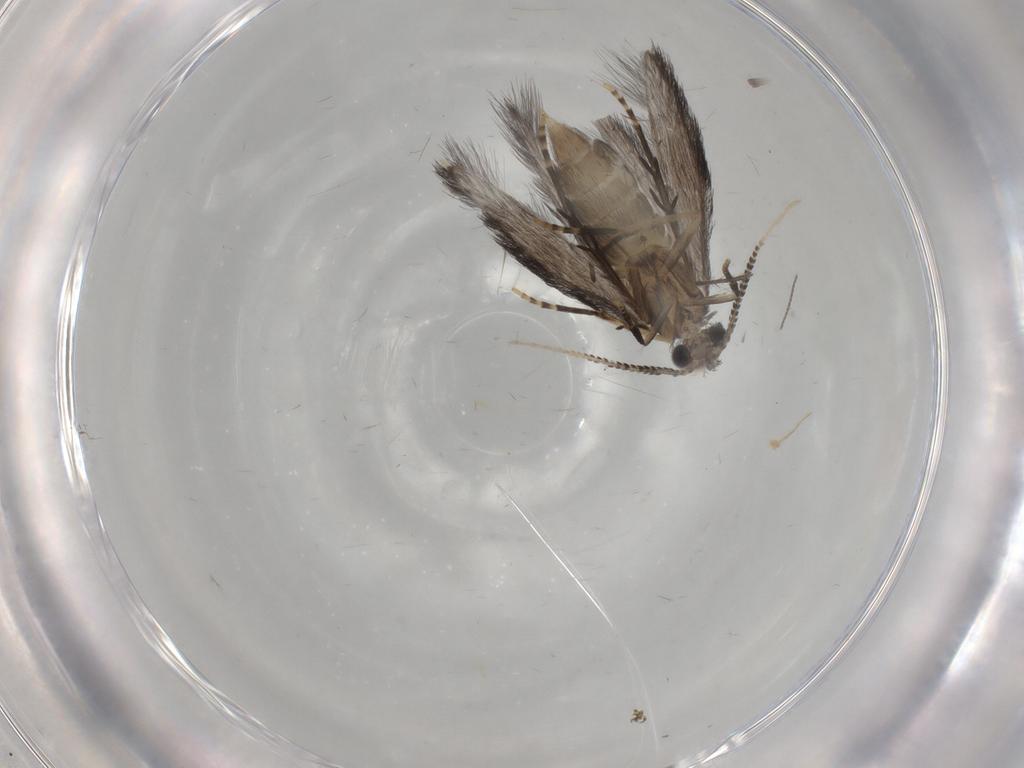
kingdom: Animalia
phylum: Arthropoda
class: Insecta
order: Trichoptera
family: Hydroptilidae
